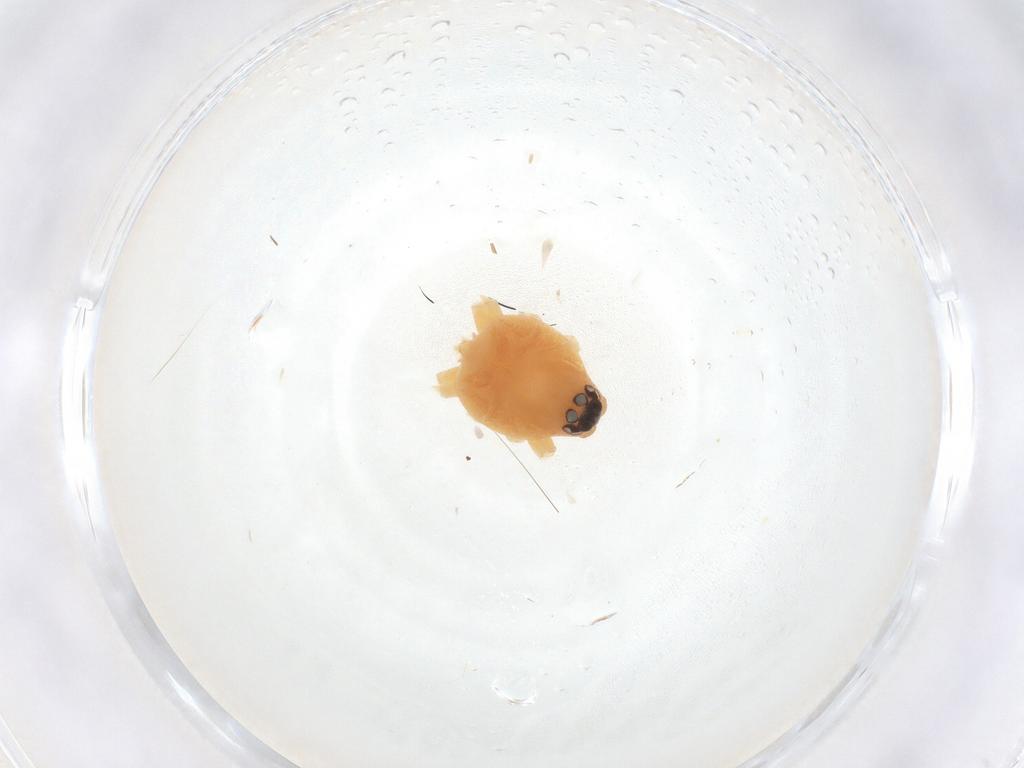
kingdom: Animalia
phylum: Arthropoda
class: Arachnida
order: Araneae
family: Gnaphosidae
